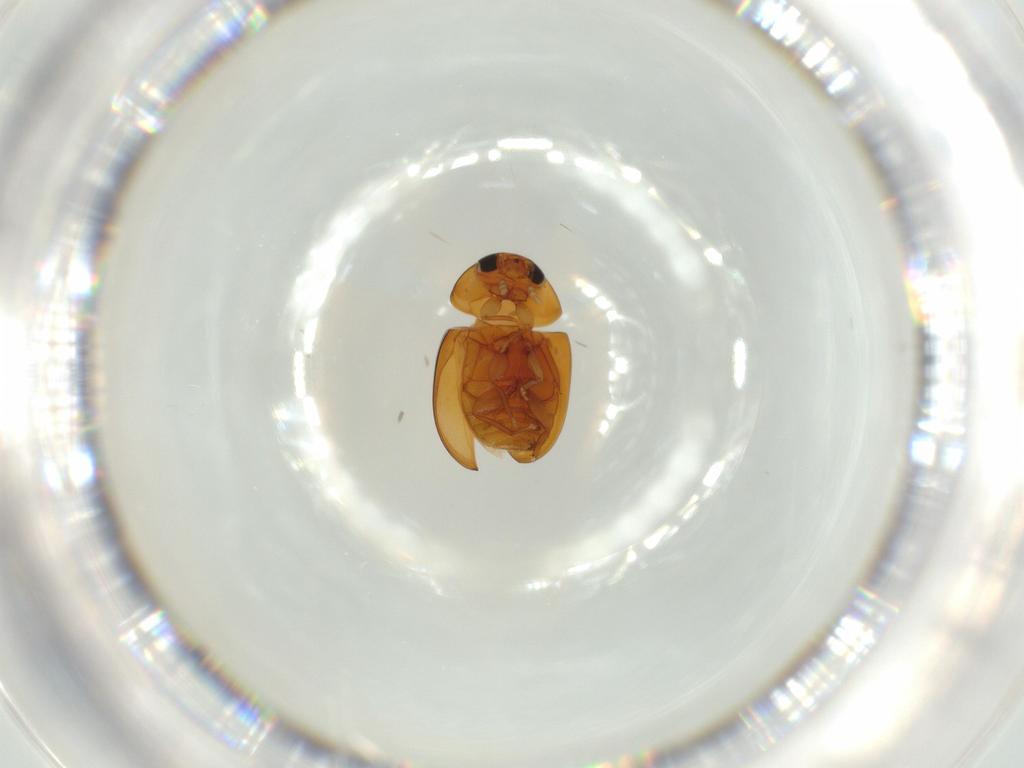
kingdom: Animalia
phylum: Arthropoda
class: Insecta
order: Coleoptera
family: Phalacridae
